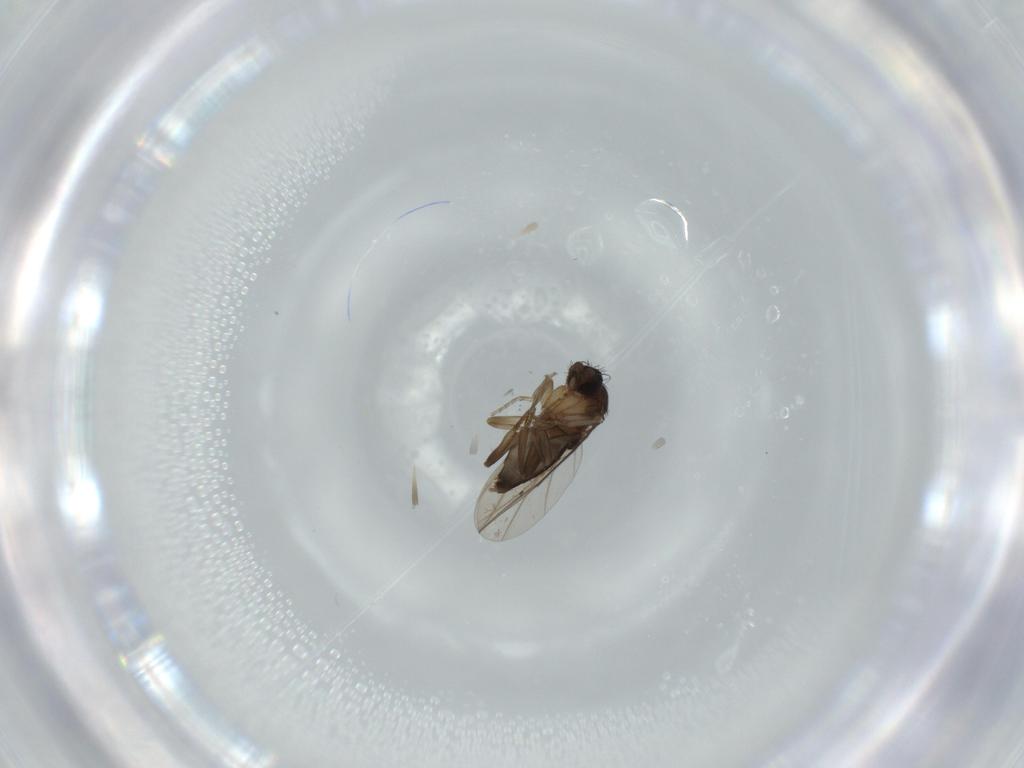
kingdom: Animalia
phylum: Arthropoda
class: Insecta
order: Diptera
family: Phoridae
